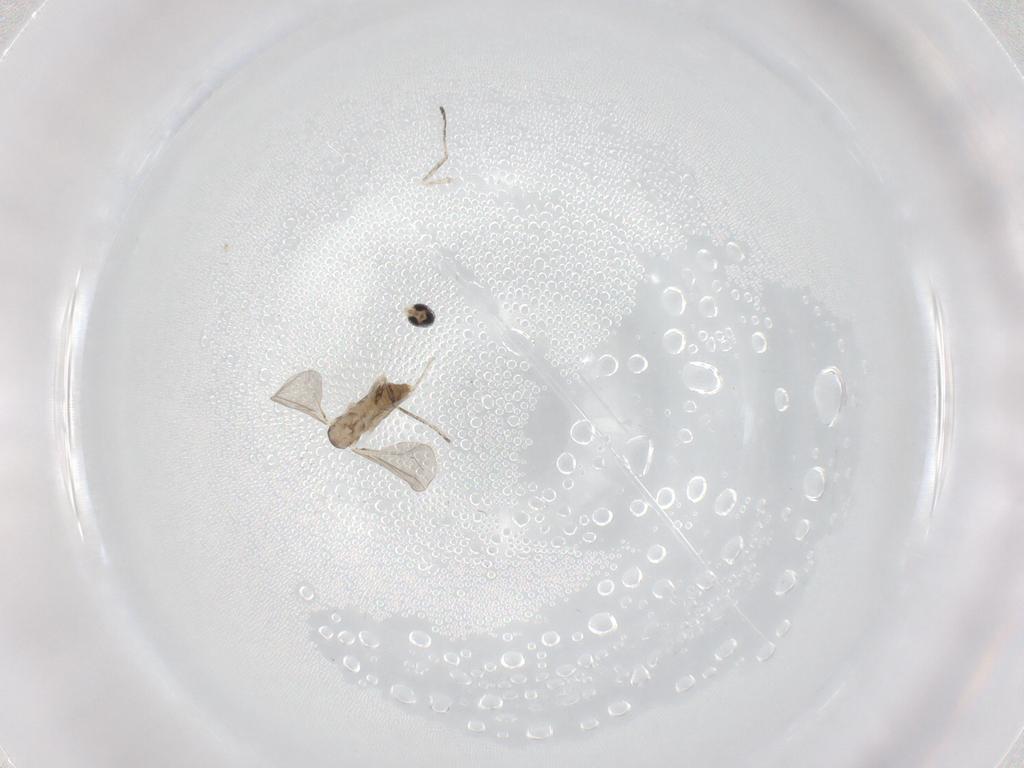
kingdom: Animalia
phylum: Arthropoda
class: Insecta
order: Diptera
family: Cecidomyiidae
